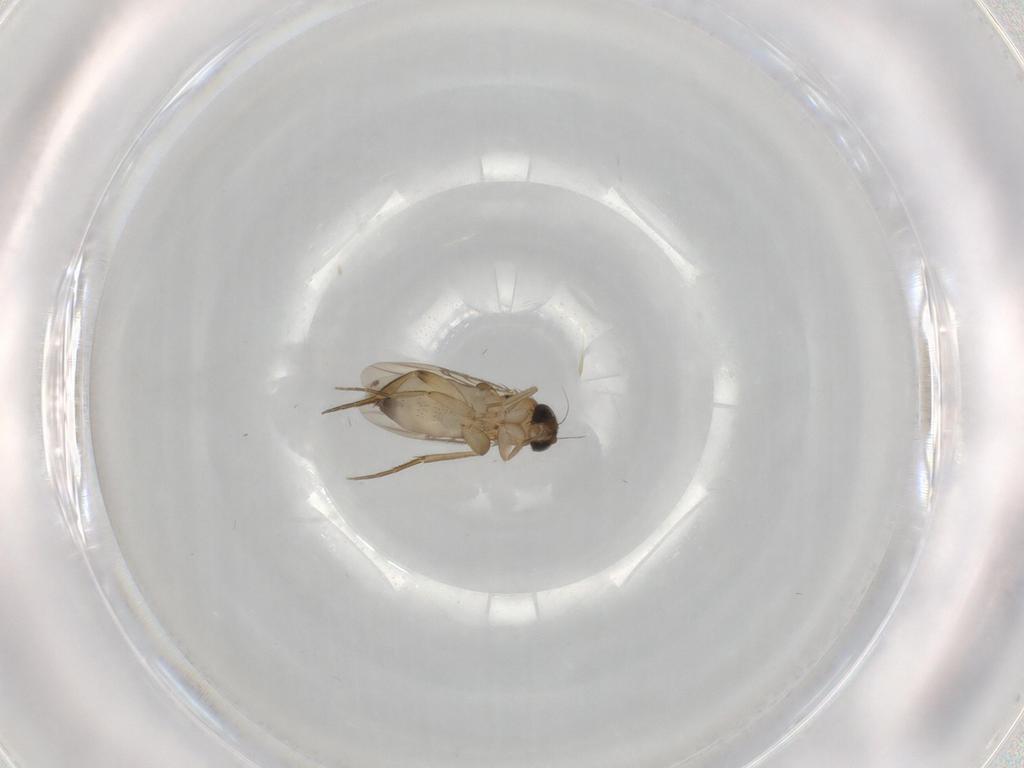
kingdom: Animalia
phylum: Arthropoda
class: Insecta
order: Diptera
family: Phoridae
